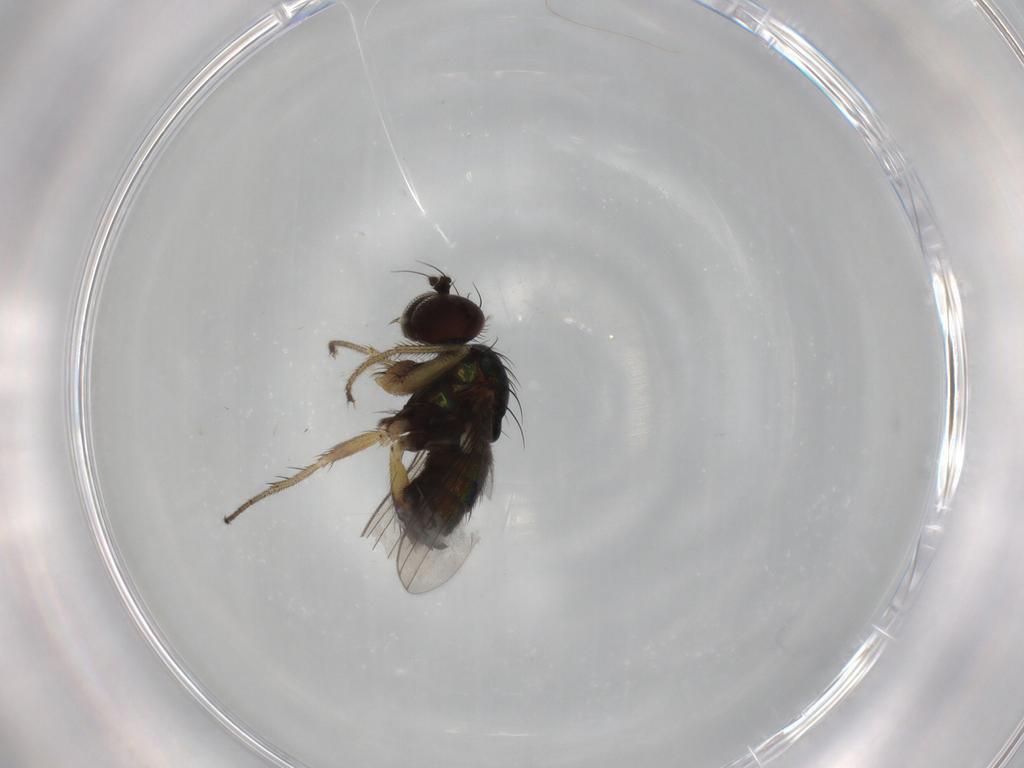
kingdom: Animalia
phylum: Arthropoda
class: Insecta
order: Diptera
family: Dolichopodidae
